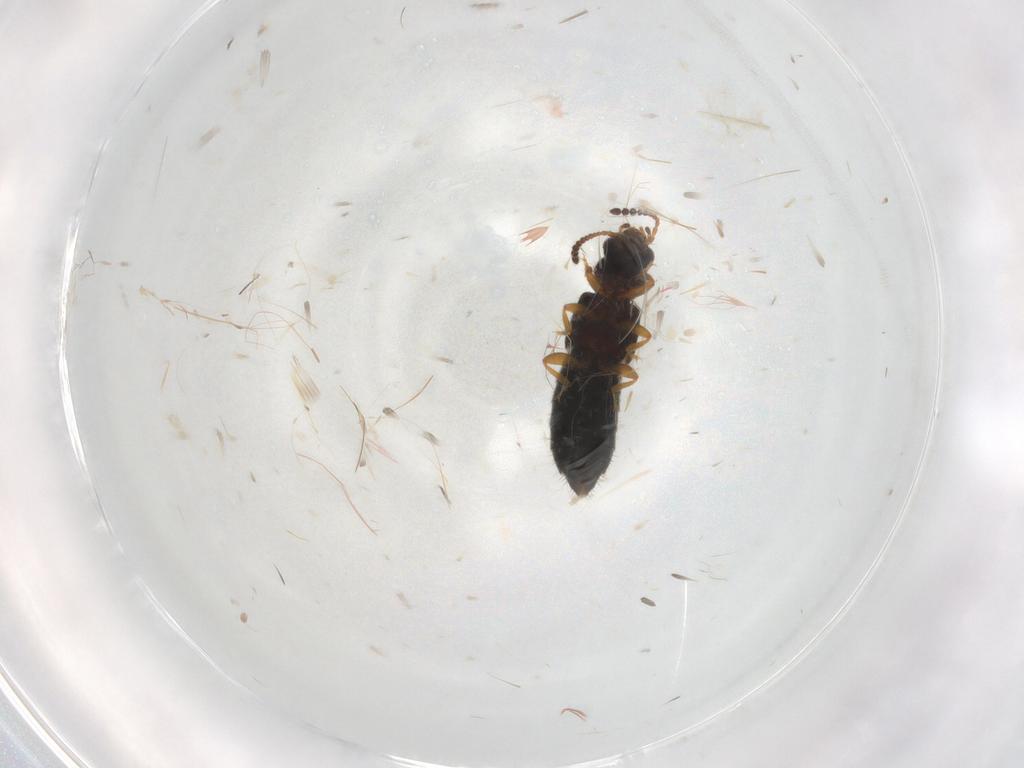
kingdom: Animalia
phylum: Arthropoda
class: Insecta
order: Coleoptera
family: Staphylinidae
